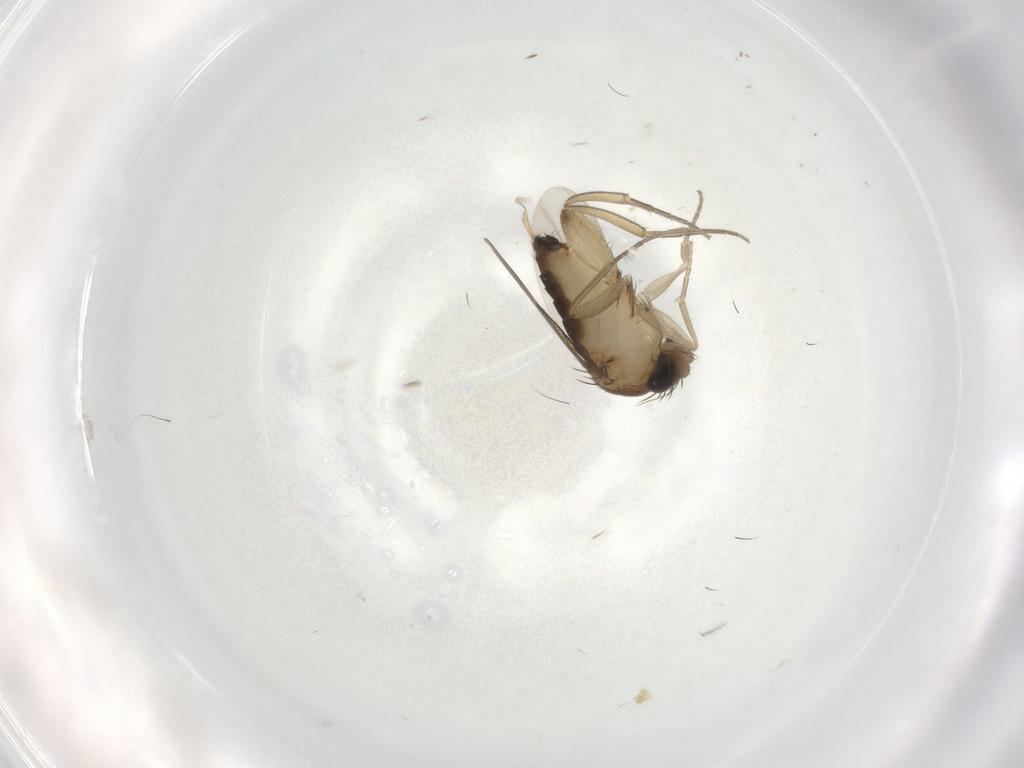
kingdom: Animalia
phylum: Arthropoda
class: Insecta
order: Diptera
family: Phoridae
